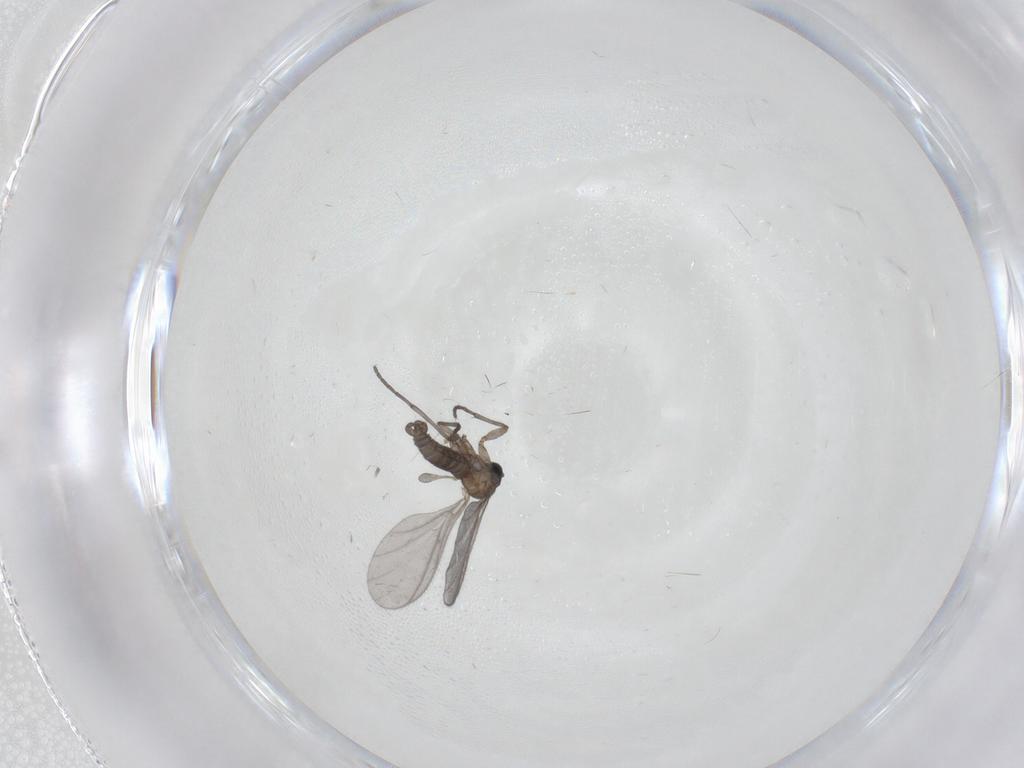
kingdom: Animalia
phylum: Arthropoda
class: Insecta
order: Diptera
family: Sciaridae
